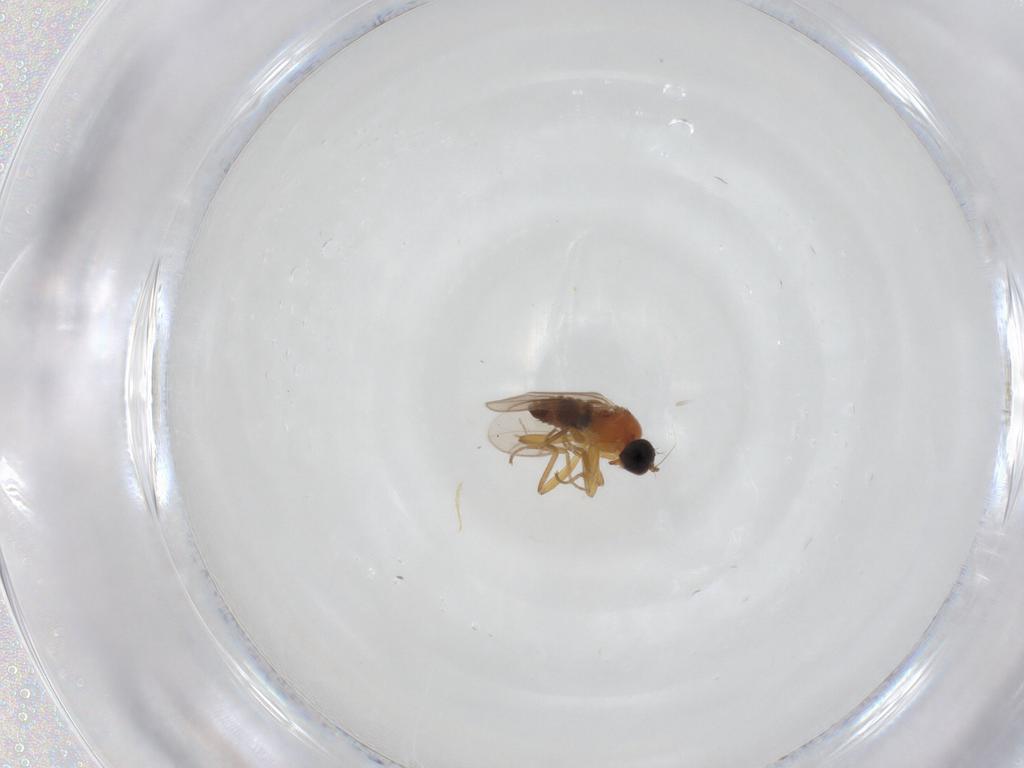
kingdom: Animalia
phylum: Arthropoda
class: Insecta
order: Diptera
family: Hybotidae
